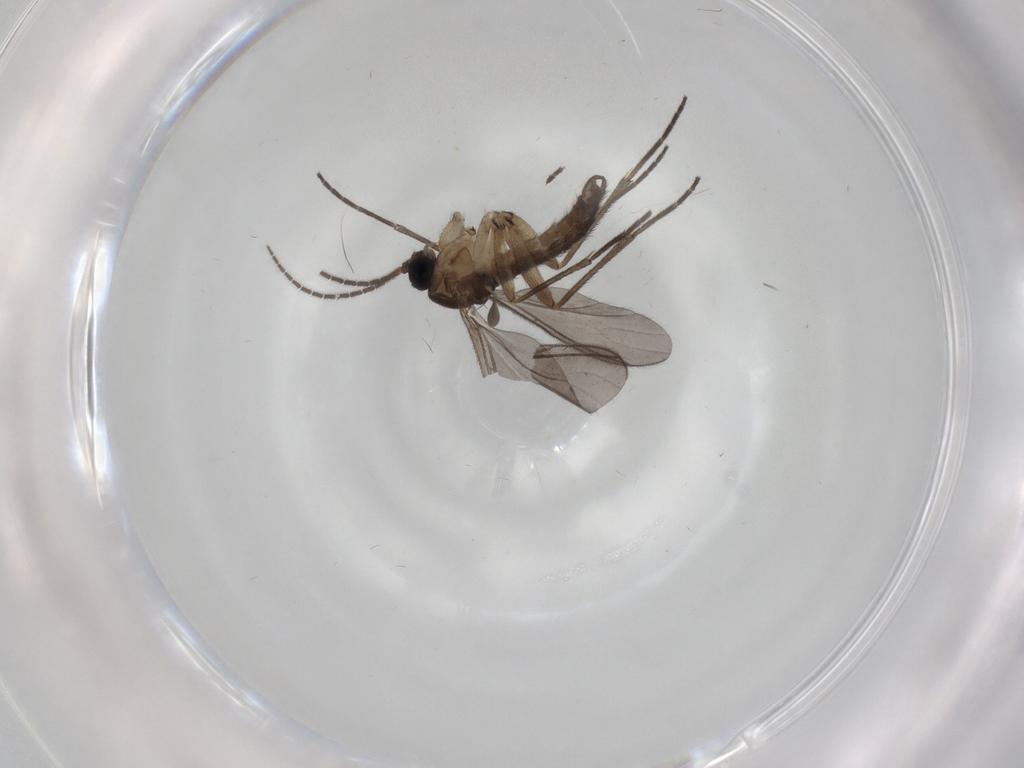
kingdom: Animalia
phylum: Arthropoda
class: Insecta
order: Diptera
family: Sciaridae
